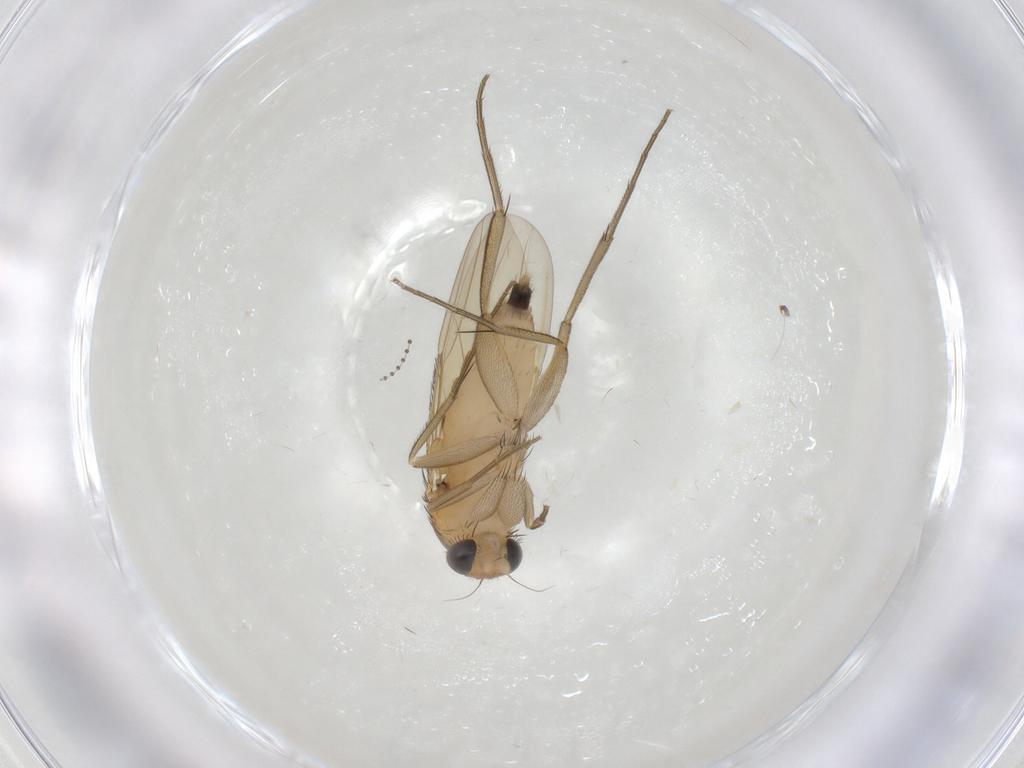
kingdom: Animalia
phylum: Arthropoda
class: Insecta
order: Diptera
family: Phoridae
